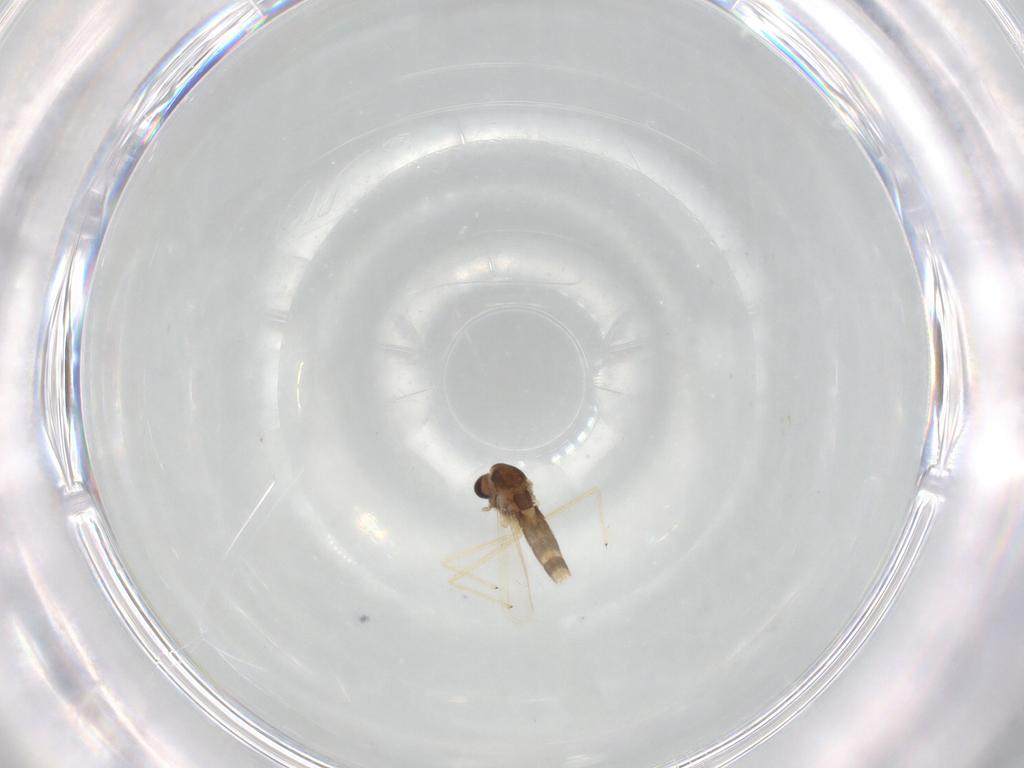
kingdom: Animalia
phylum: Arthropoda
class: Insecta
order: Diptera
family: Chironomidae
